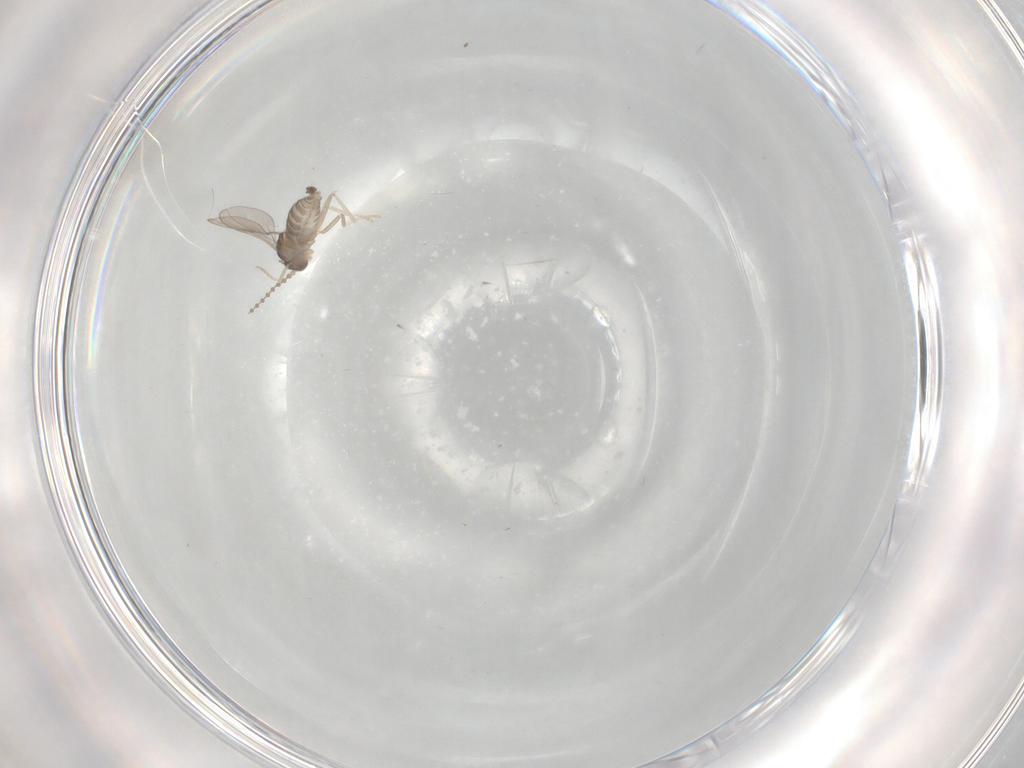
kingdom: Animalia
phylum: Arthropoda
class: Insecta
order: Diptera
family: Cecidomyiidae
